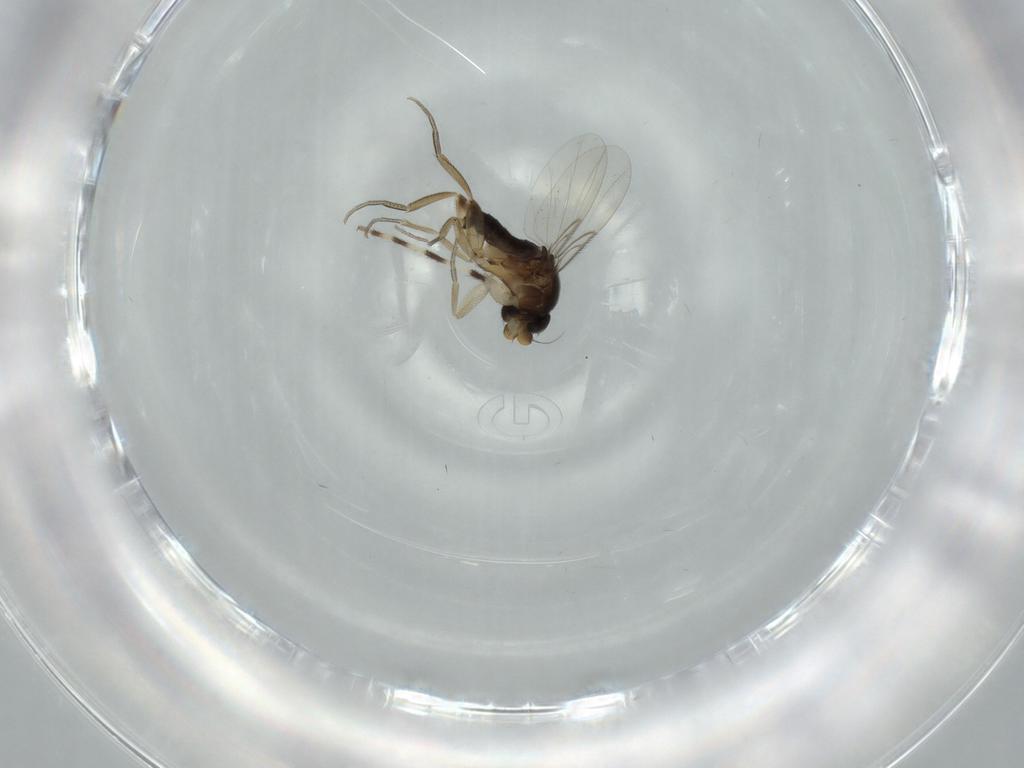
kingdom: Animalia
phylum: Arthropoda
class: Insecta
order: Diptera
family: Phoridae
